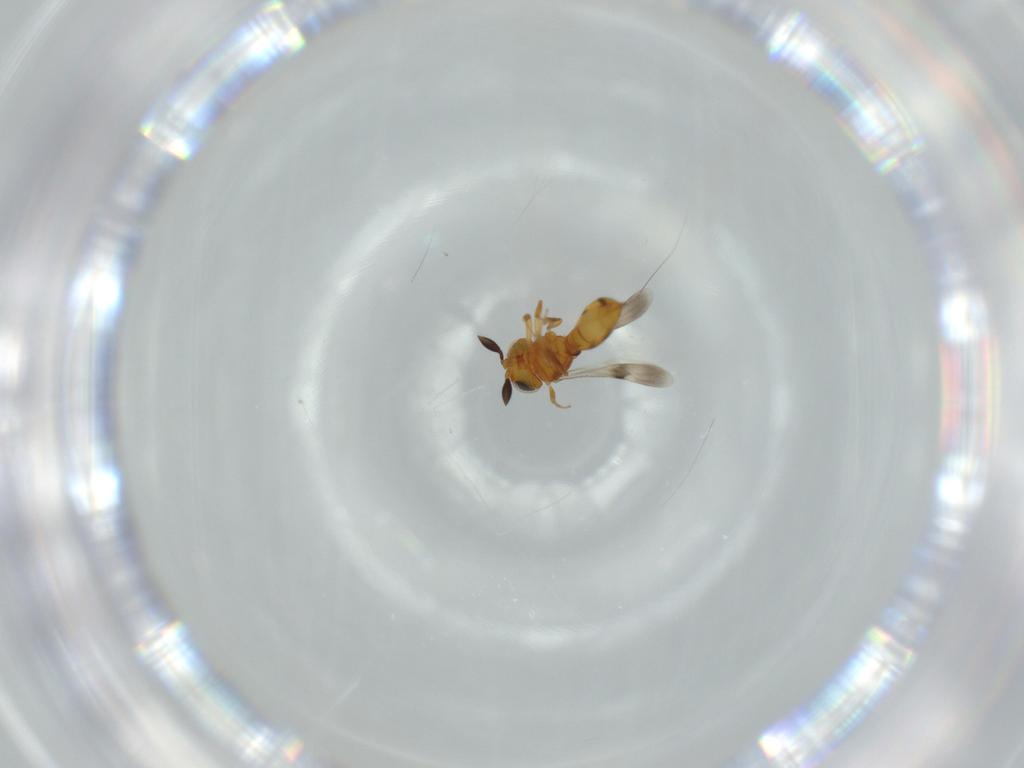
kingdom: Animalia
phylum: Arthropoda
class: Insecta
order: Hymenoptera
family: Scelionidae
